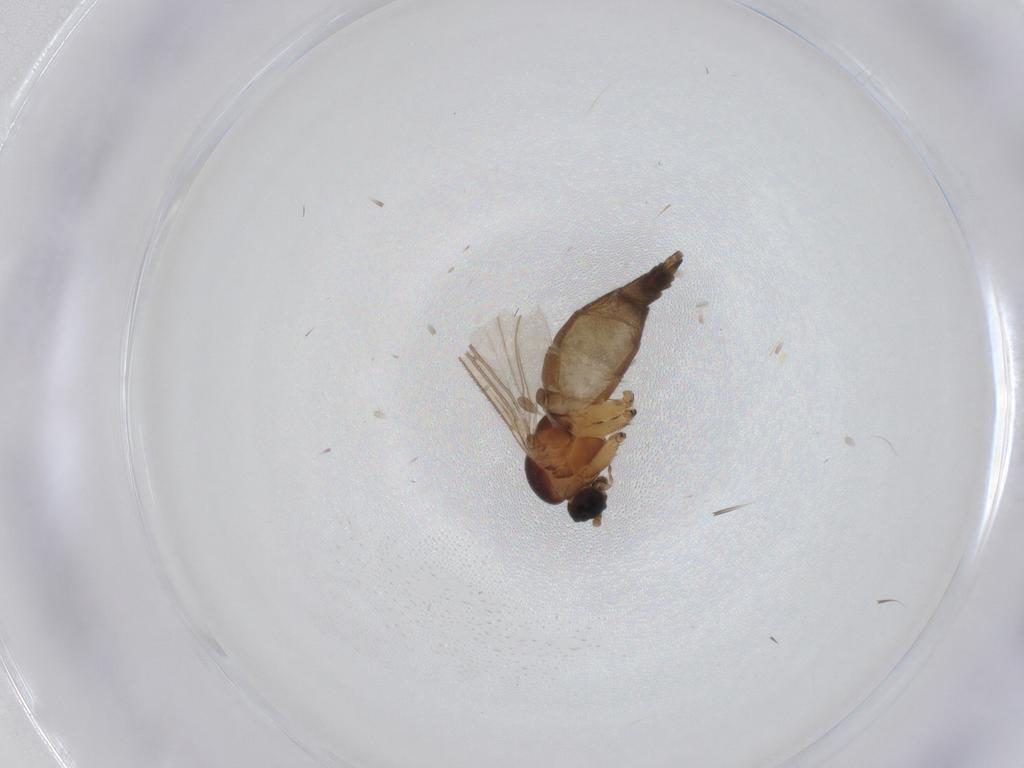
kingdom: Animalia
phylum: Arthropoda
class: Insecta
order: Diptera
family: Sciaridae
